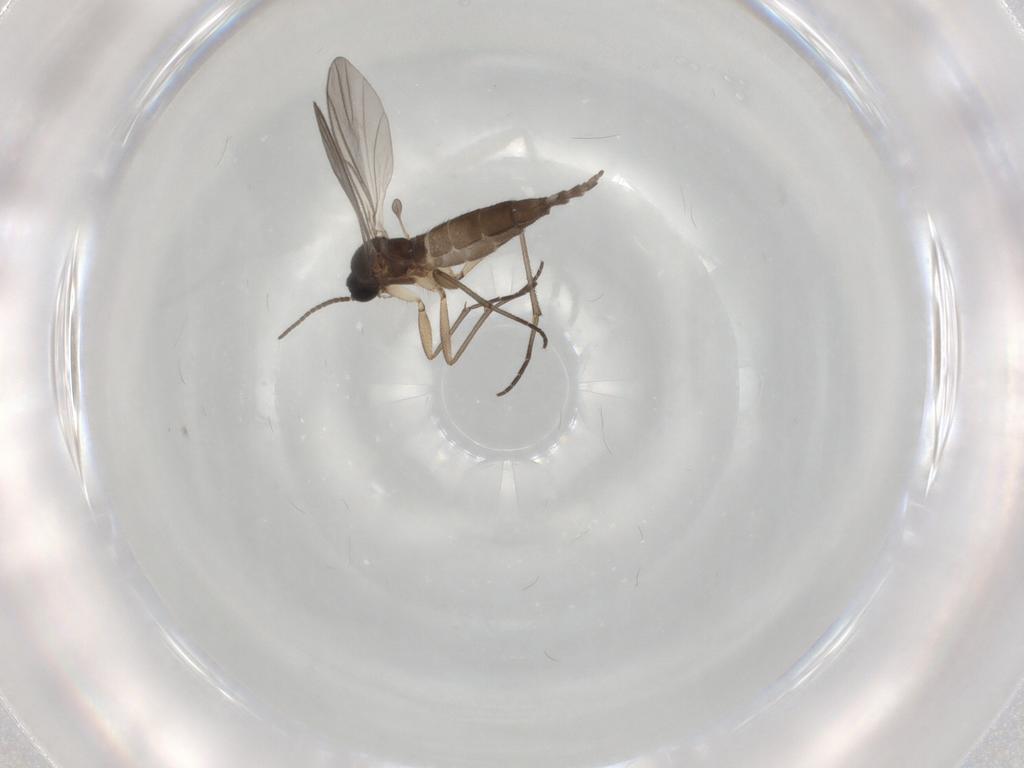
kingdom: Animalia
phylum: Arthropoda
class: Insecta
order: Diptera
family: Sciaridae
